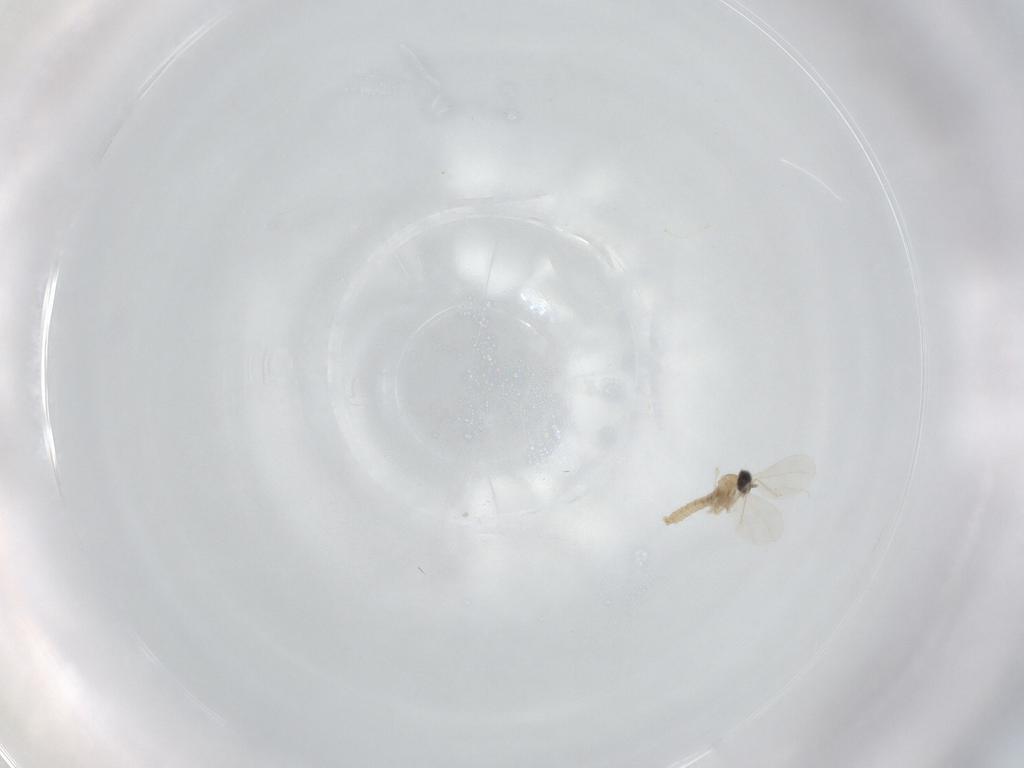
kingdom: Animalia
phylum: Arthropoda
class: Insecta
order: Diptera
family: Cecidomyiidae
